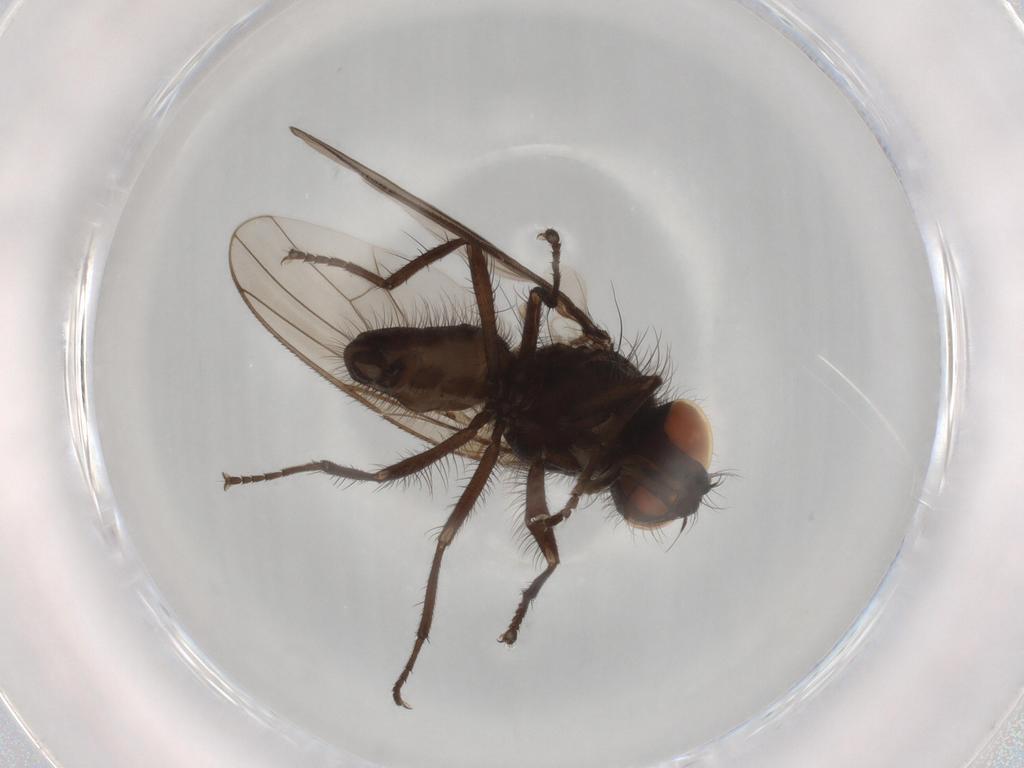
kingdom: Animalia
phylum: Arthropoda
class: Insecta
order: Diptera
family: Anthomyiidae
